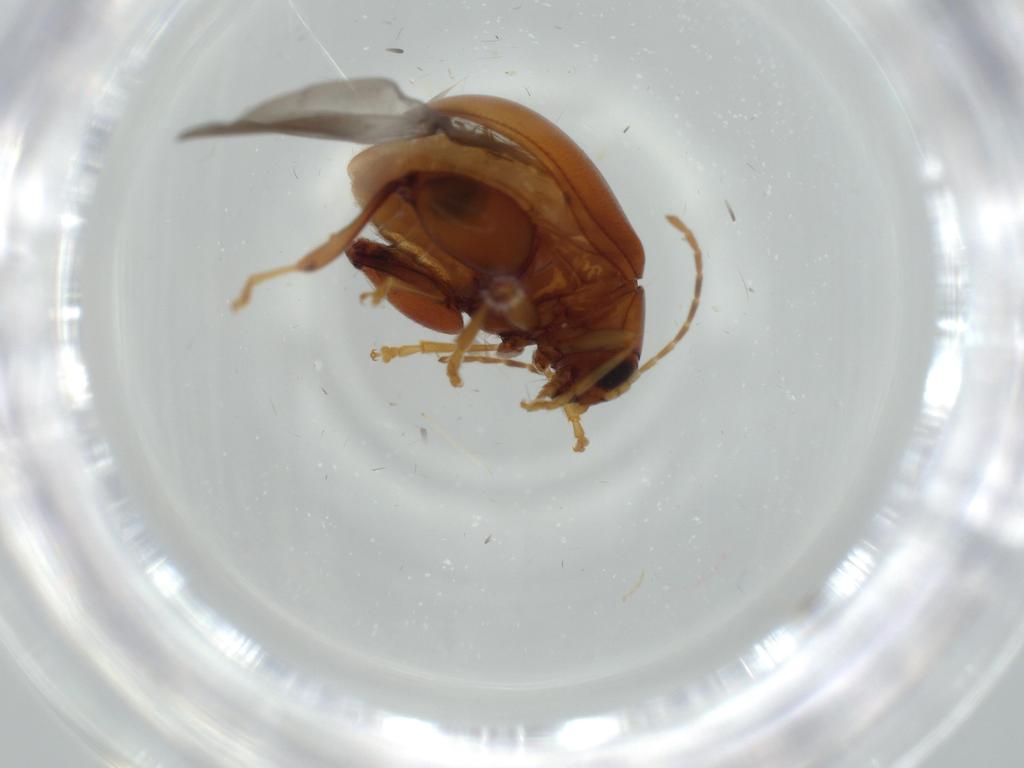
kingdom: Animalia
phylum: Arthropoda
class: Insecta
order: Coleoptera
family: Chrysomelidae
